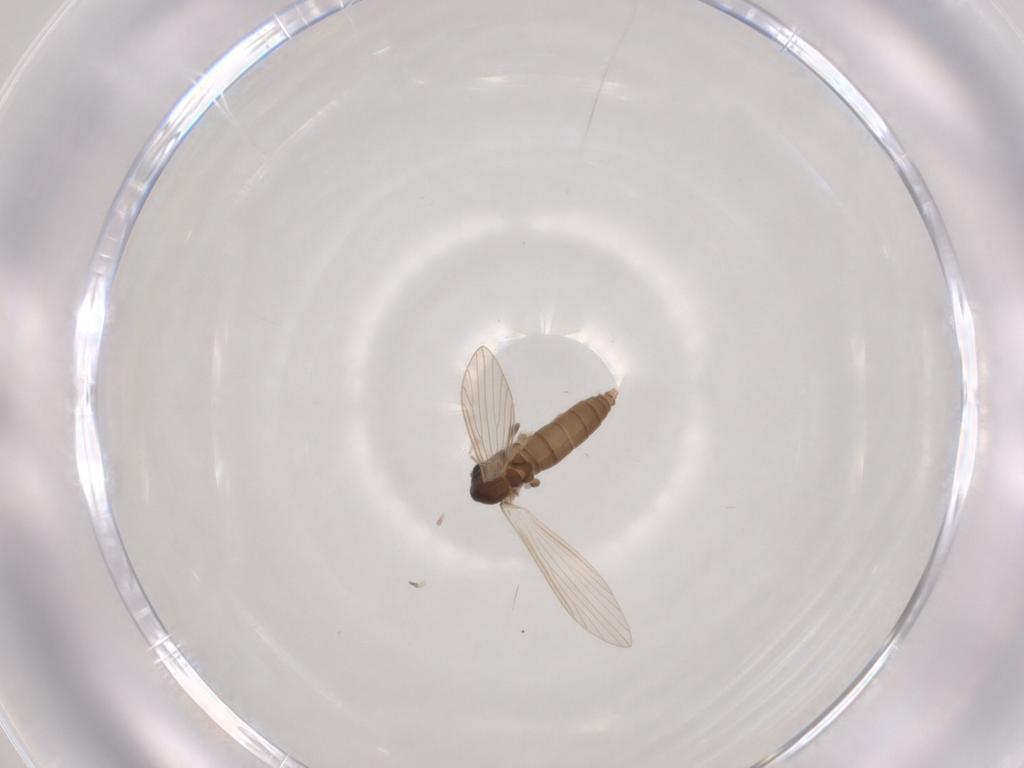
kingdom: Animalia
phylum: Arthropoda
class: Insecta
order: Diptera
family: Psychodidae
